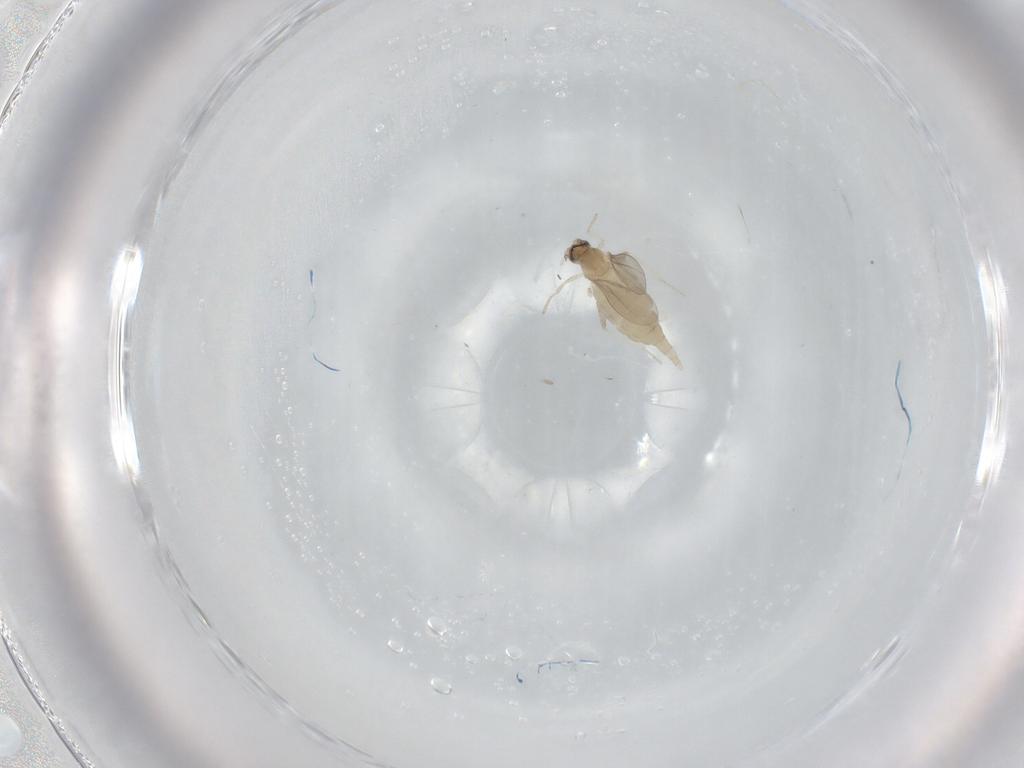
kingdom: Animalia
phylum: Arthropoda
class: Insecta
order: Diptera
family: Cecidomyiidae
